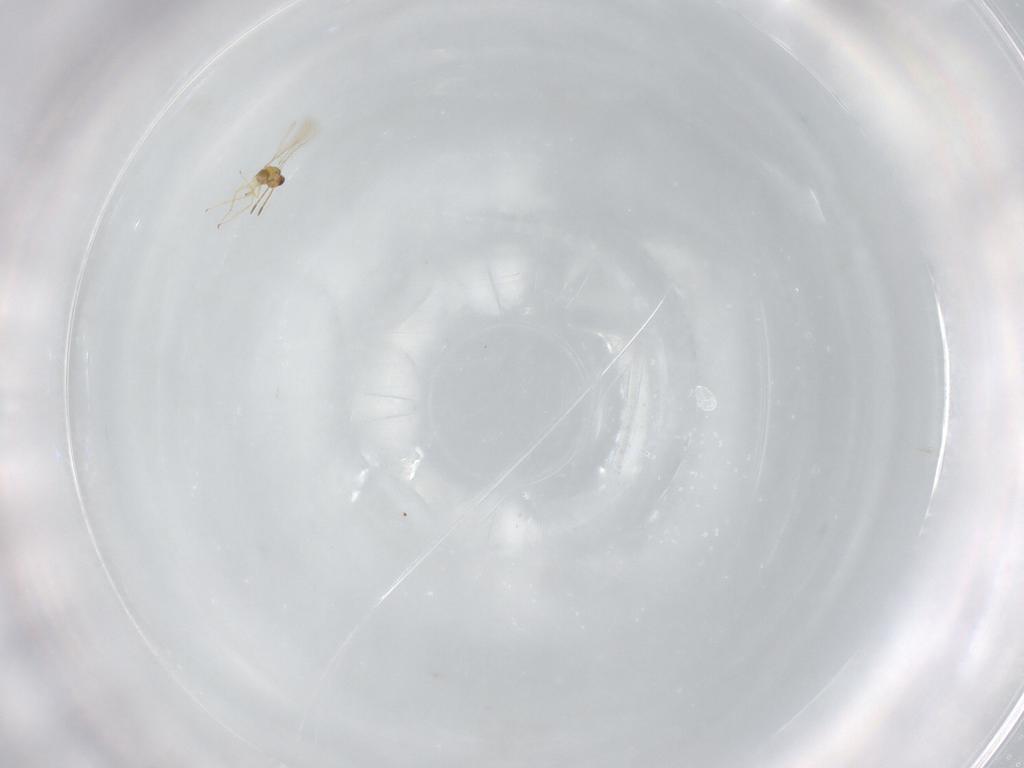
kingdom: Animalia
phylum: Arthropoda
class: Insecta
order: Hymenoptera
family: Mymaridae
